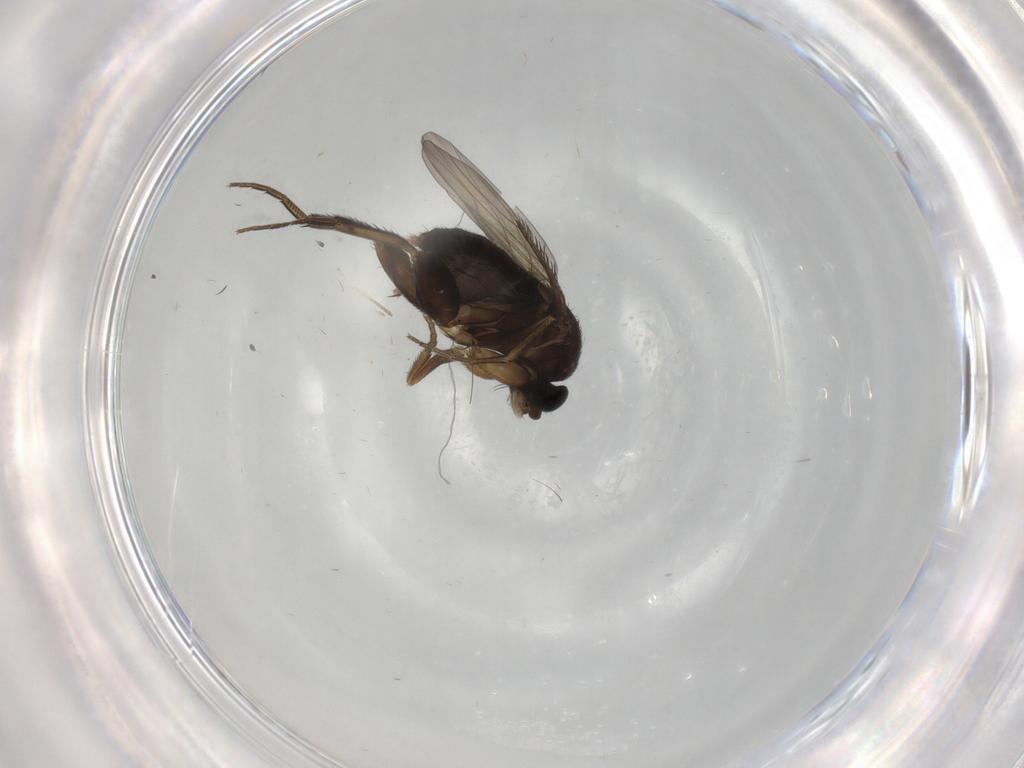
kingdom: Animalia
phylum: Arthropoda
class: Insecta
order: Diptera
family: Phoridae
